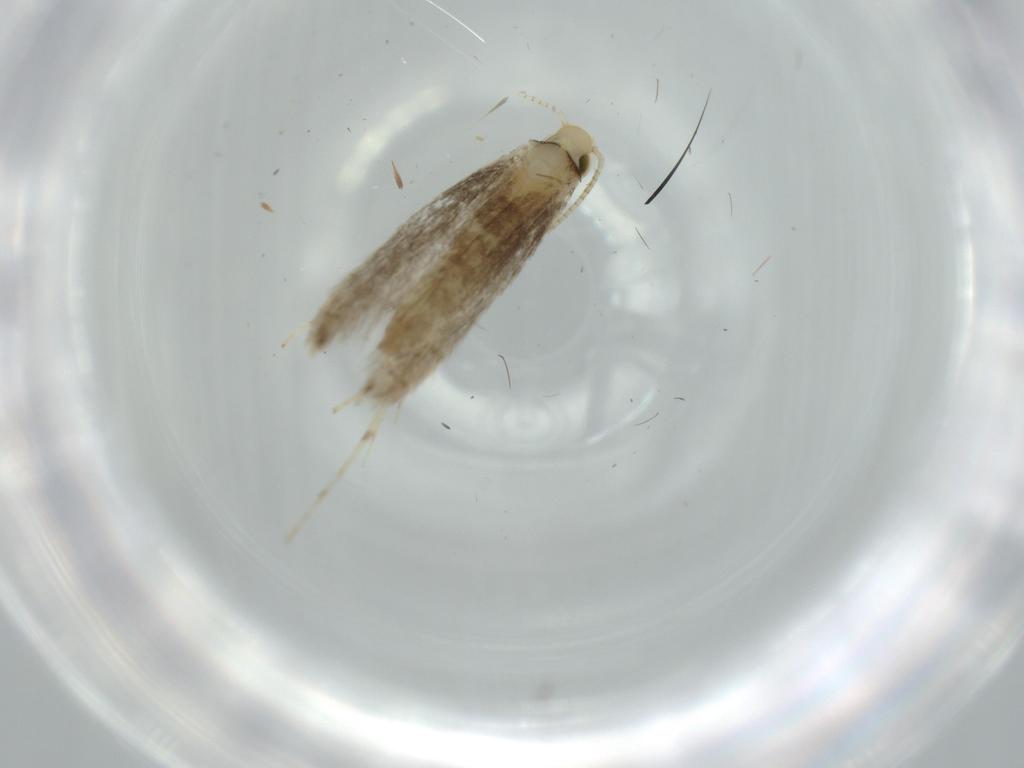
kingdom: Animalia
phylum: Arthropoda
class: Insecta
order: Lepidoptera
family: Gracillariidae
